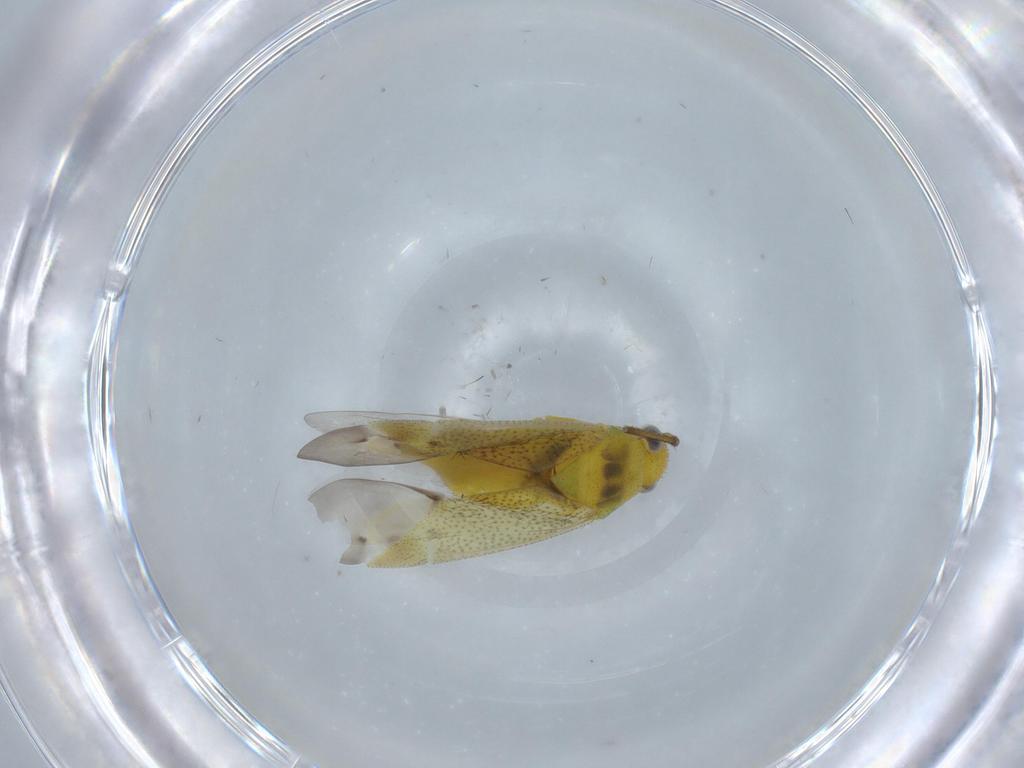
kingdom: Animalia
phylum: Arthropoda
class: Insecta
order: Hemiptera
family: Miridae
